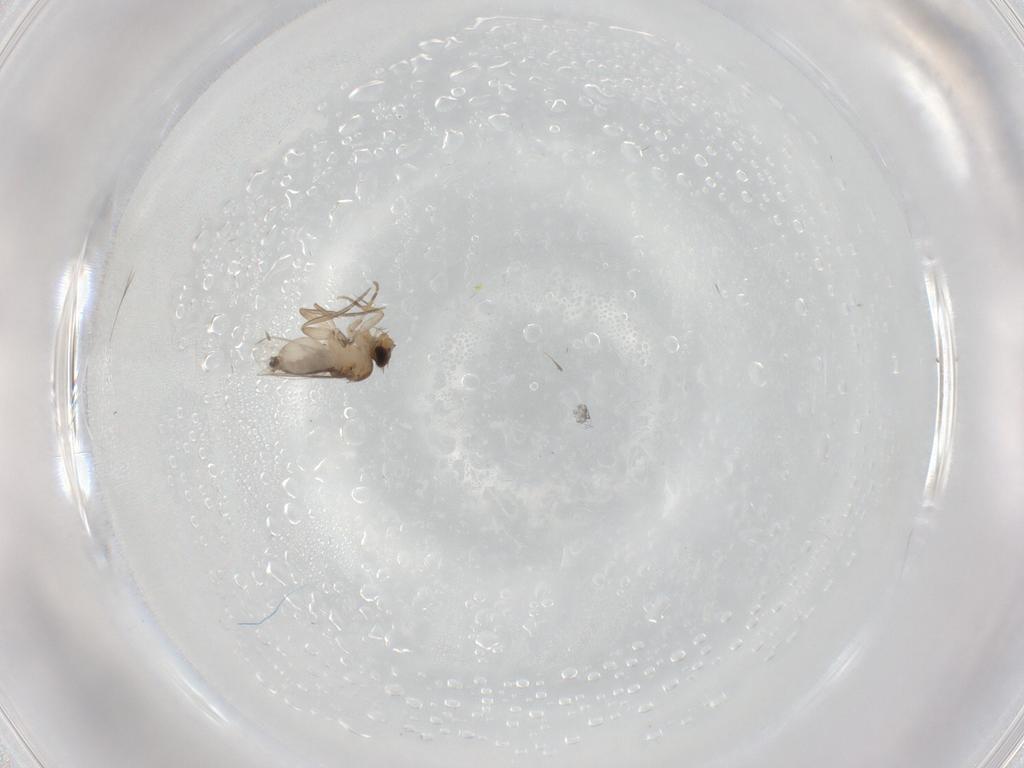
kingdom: Animalia
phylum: Arthropoda
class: Insecta
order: Diptera
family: Phoridae
